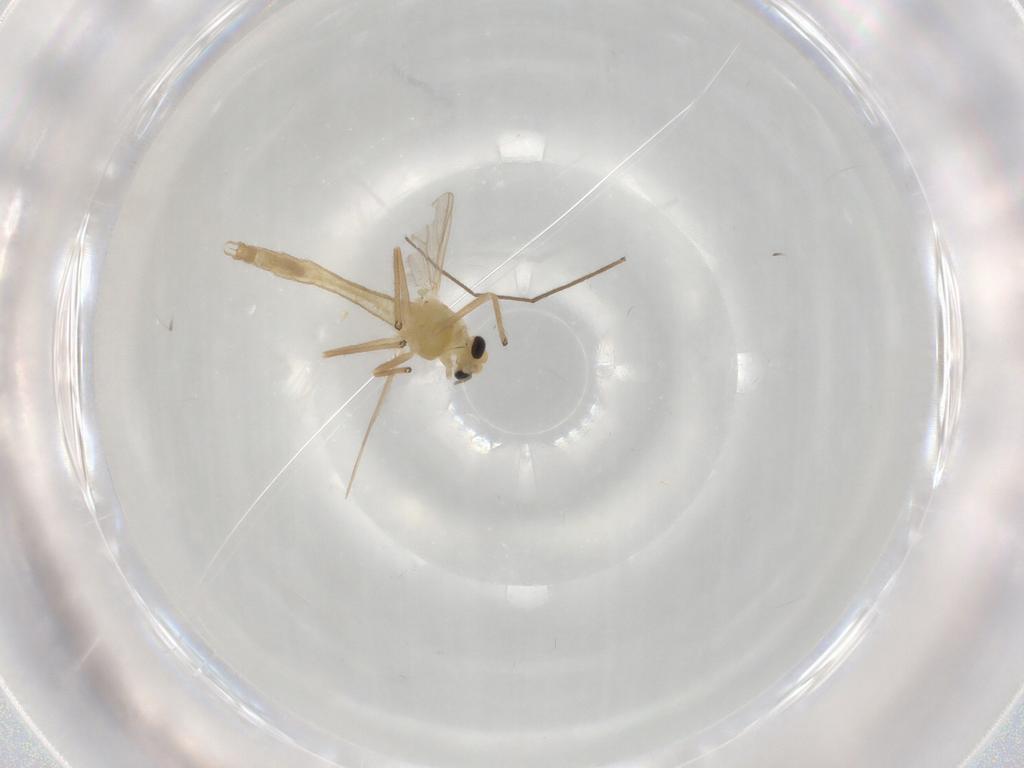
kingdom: Animalia
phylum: Arthropoda
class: Insecta
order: Diptera
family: Chironomidae
